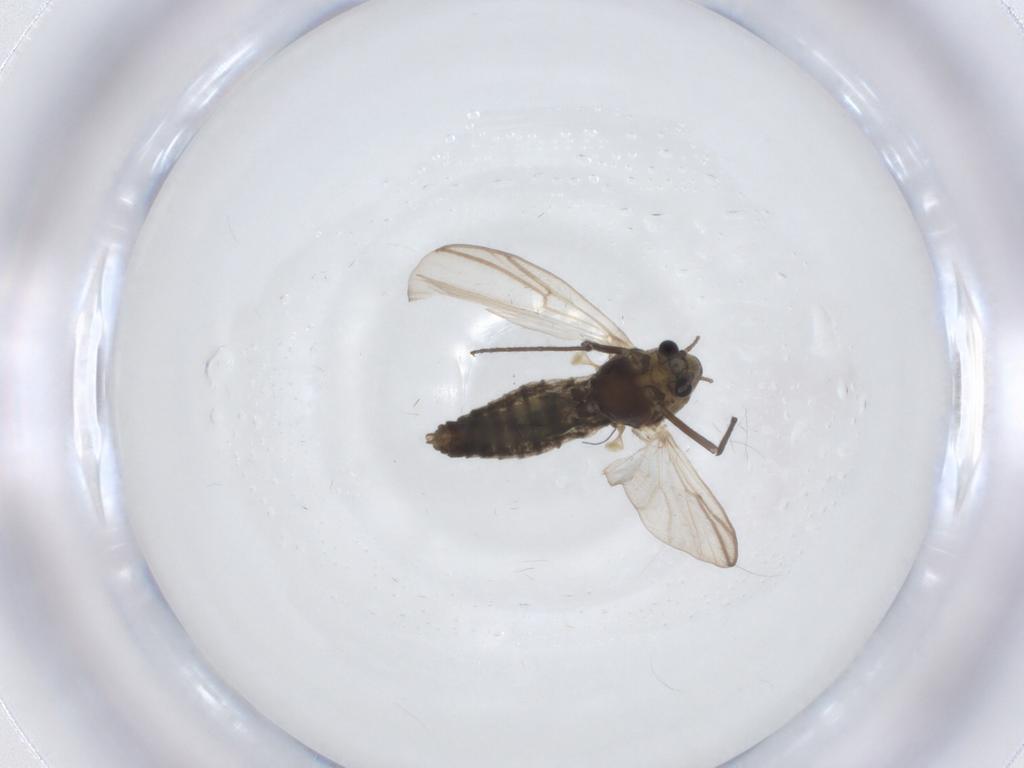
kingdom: Animalia
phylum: Arthropoda
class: Insecta
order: Diptera
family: Chironomidae
